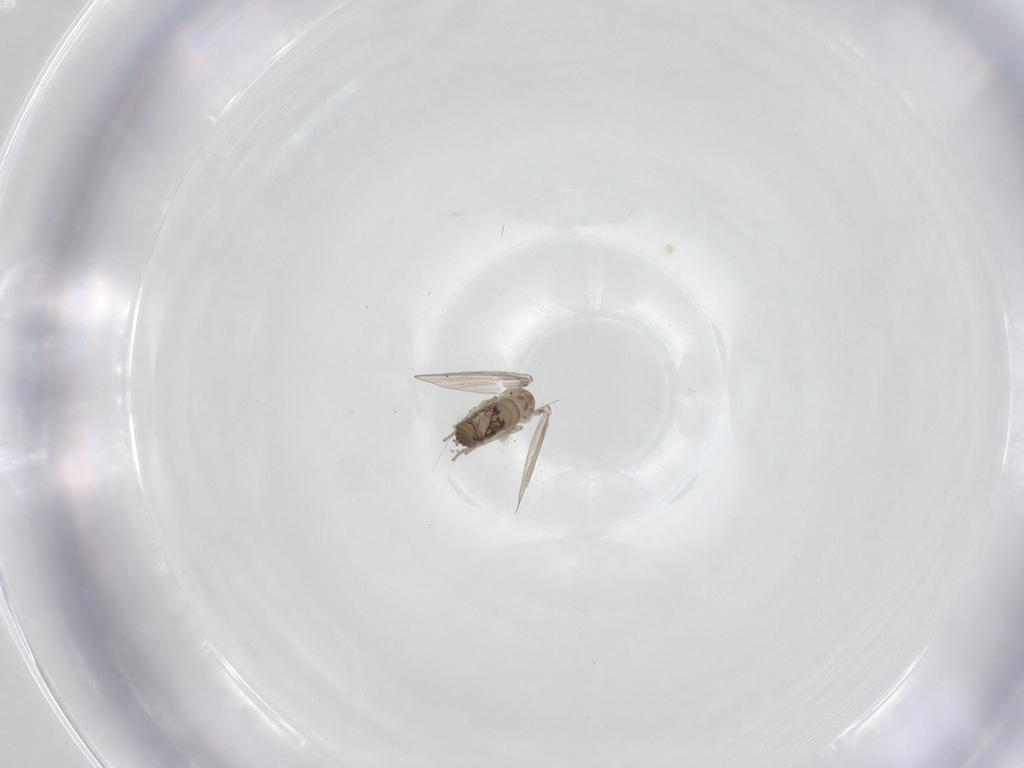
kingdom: Animalia
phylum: Arthropoda
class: Insecta
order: Diptera
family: Psychodidae
